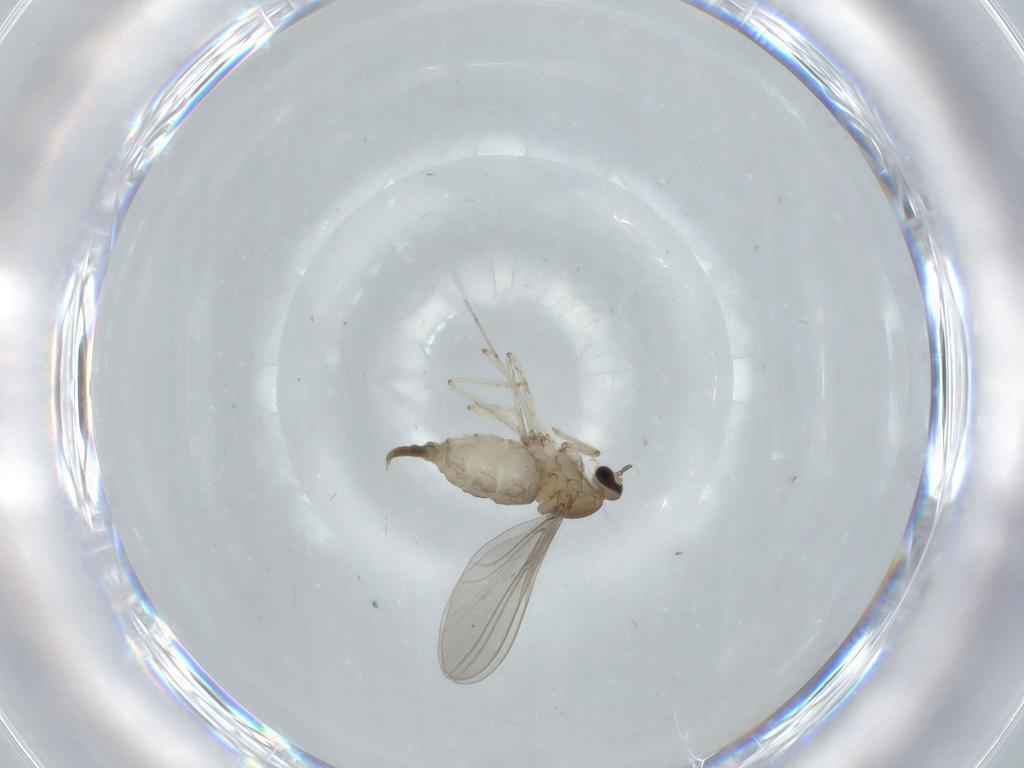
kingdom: Animalia
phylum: Arthropoda
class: Insecta
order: Diptera
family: Cecidomyiidae
